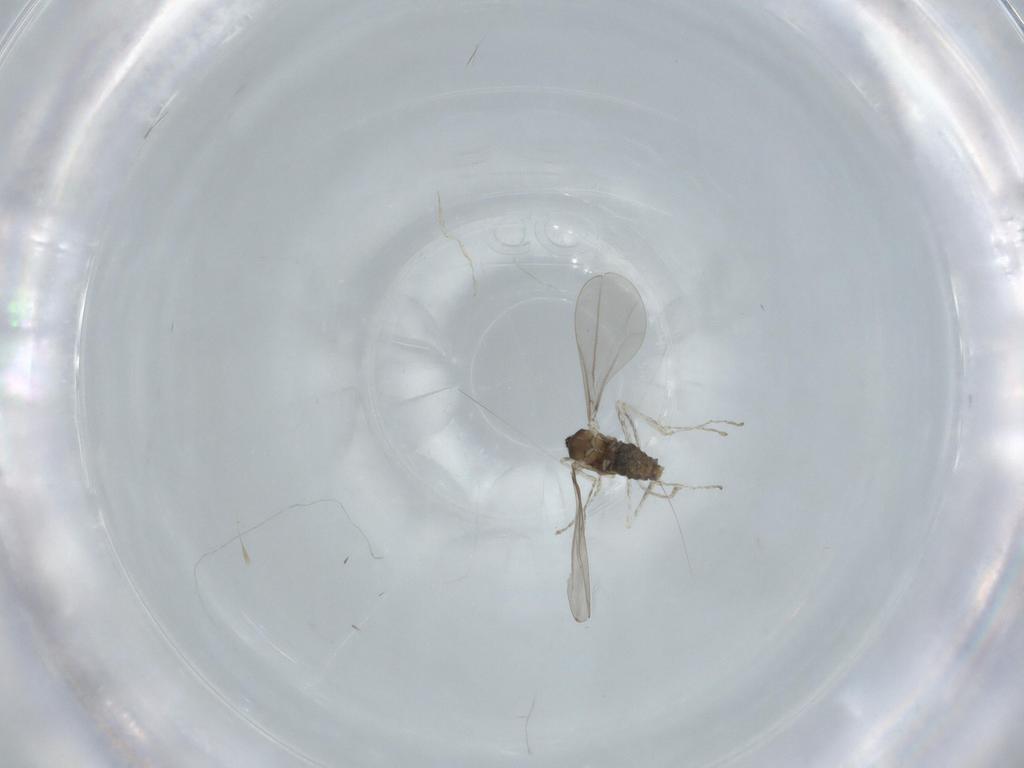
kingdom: Animalia
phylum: Arthropoda
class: Insecta
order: Diptera
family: Cecidomyiidae
